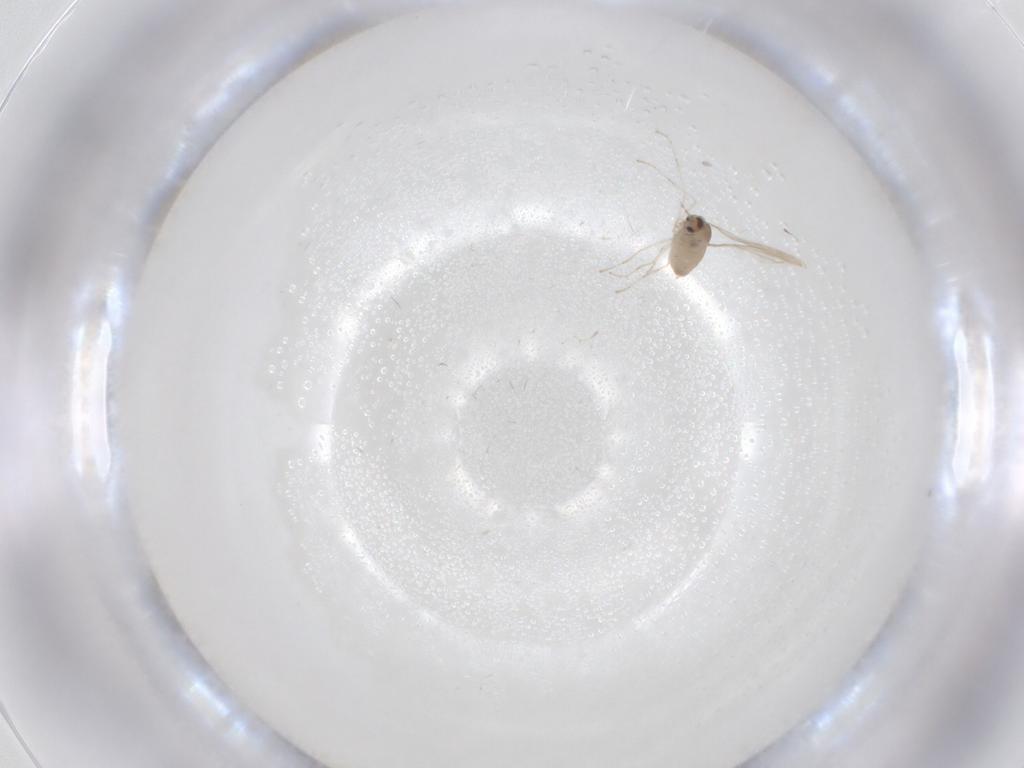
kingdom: Animalia
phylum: Arthropoda
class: Insecta
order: Diptera
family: Cecidomyiidae
